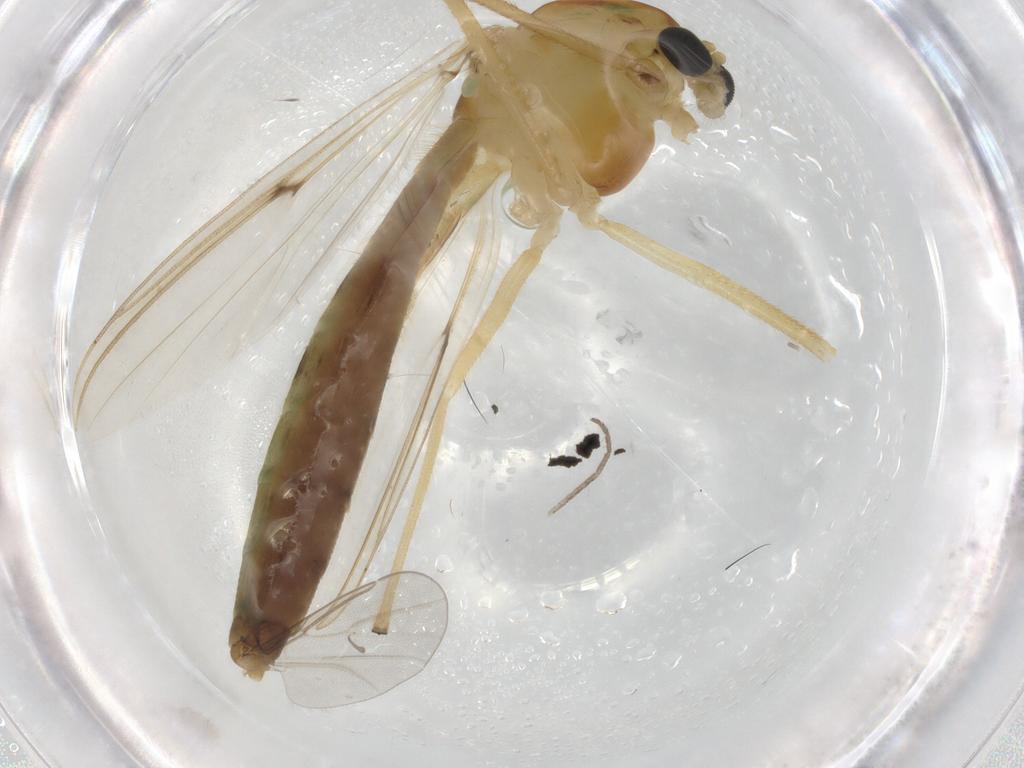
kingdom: Animalia
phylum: Arthropoda
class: Insecta
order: Diptera
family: Chironomidae
